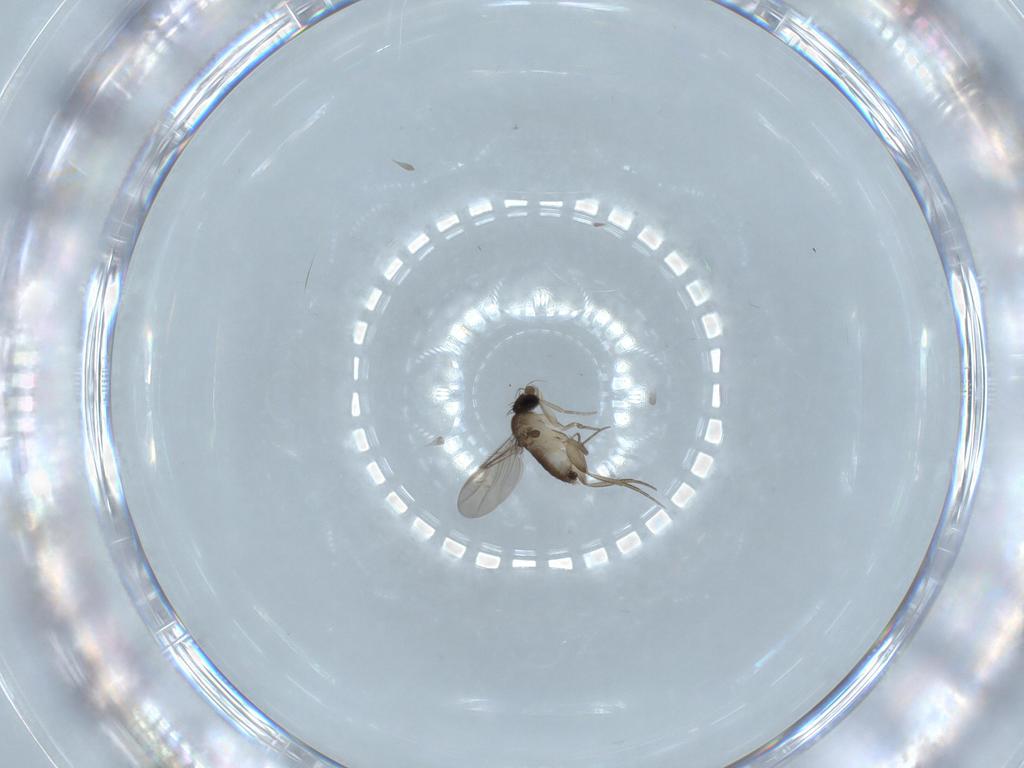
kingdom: Animalia
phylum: Arthropoda
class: Insecta
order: Diptera
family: Phoridae
